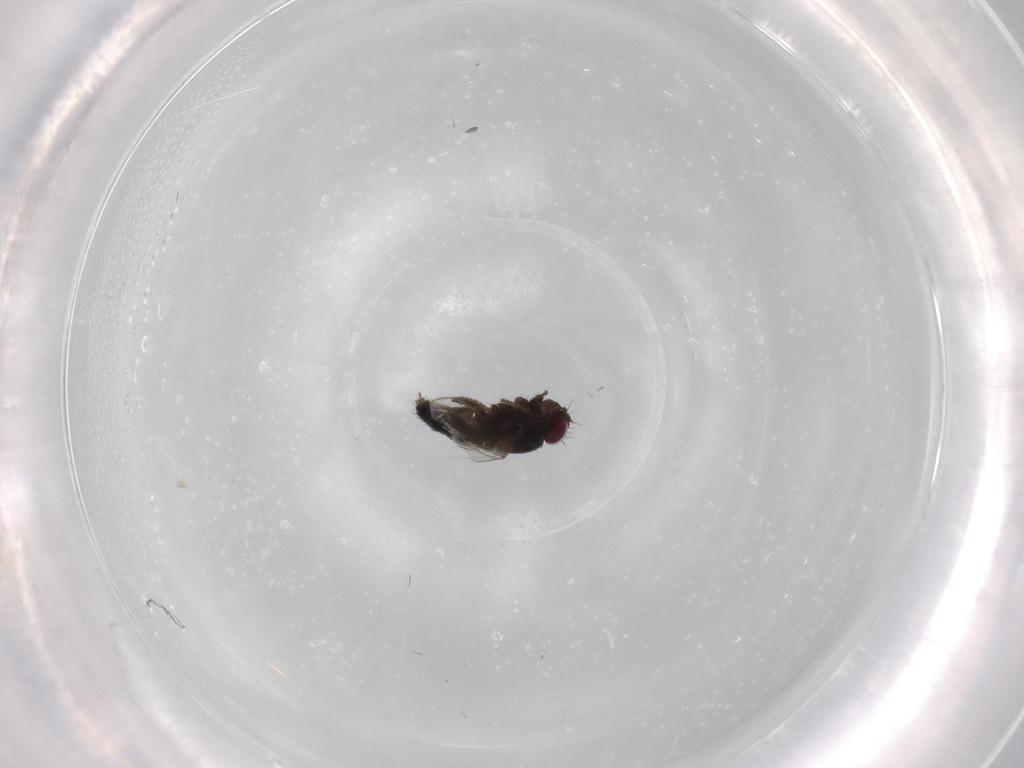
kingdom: Animalia
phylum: Arthropoda
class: Insecta
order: Diptera
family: Carnidae
